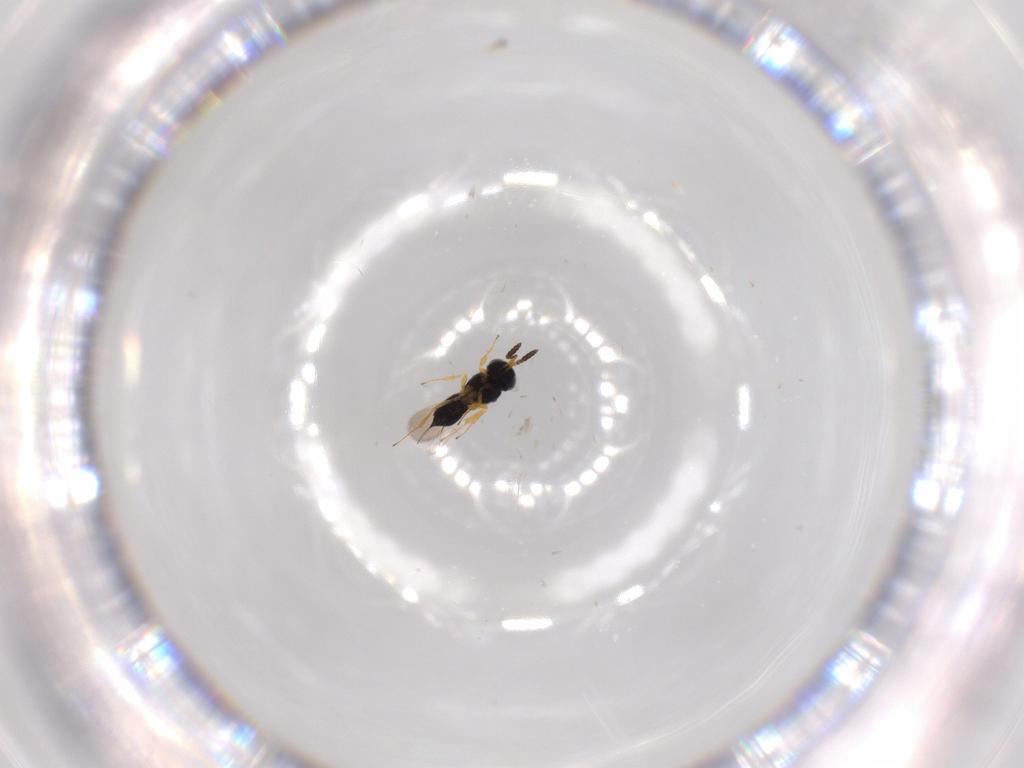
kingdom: Animalia
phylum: Arthropoda
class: Insecta
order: Hymenoptera
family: Scelionidae
